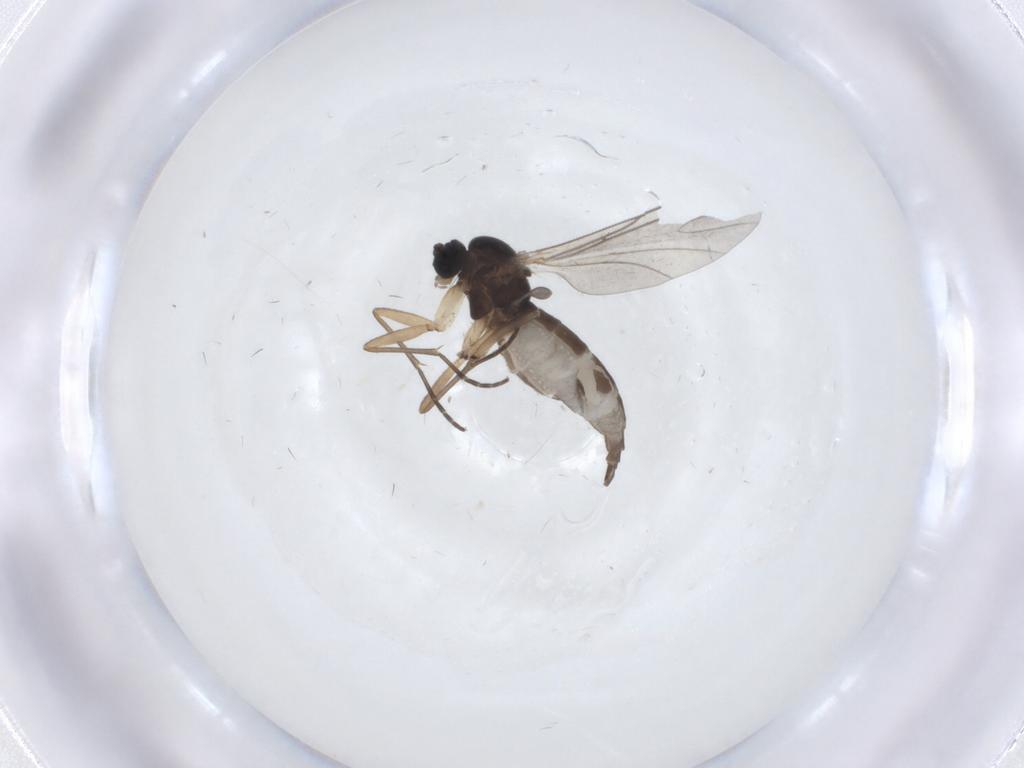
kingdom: Animalia
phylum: Arthropoda
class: Insecta
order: Diptera
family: Sciaridae
